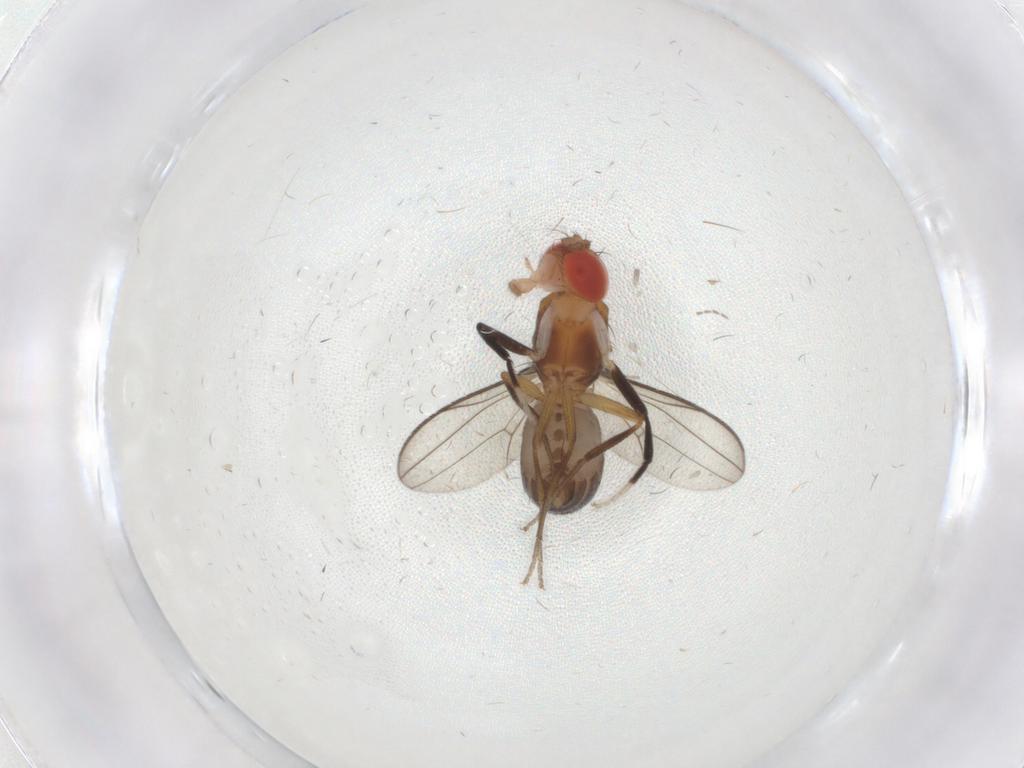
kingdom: Animalia
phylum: Arthropoda
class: Insecta
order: Diptera
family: Drosophilidae
